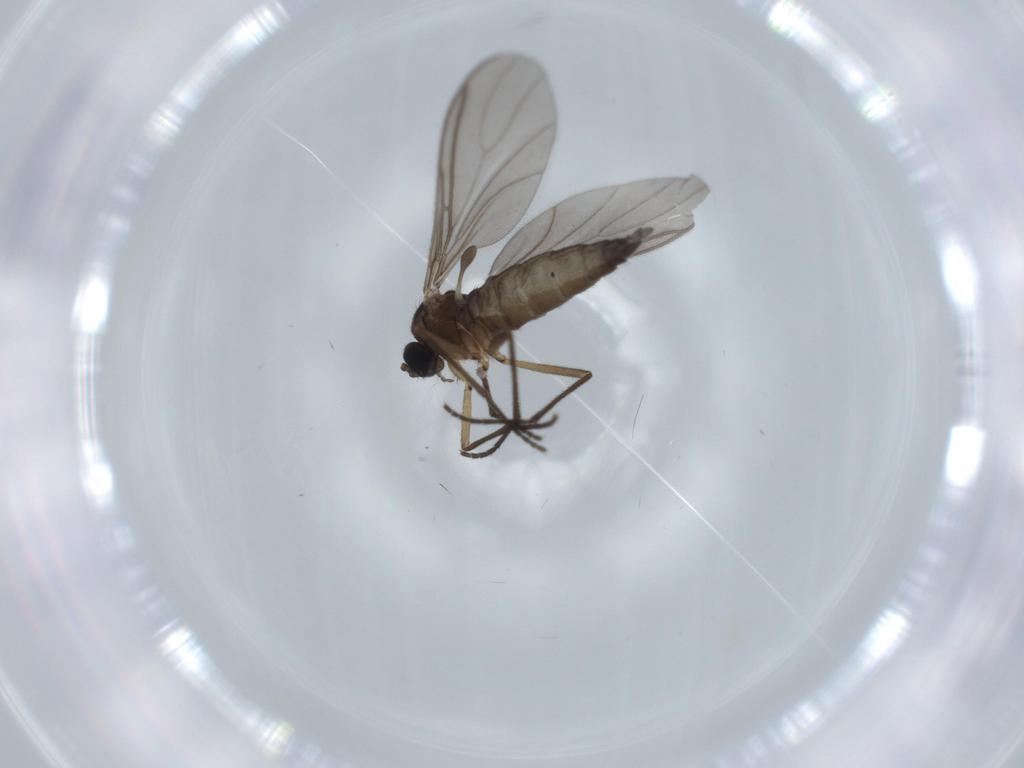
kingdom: Animalia
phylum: Arthropoda
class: Insecta
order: Diptera
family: Sciaridae
